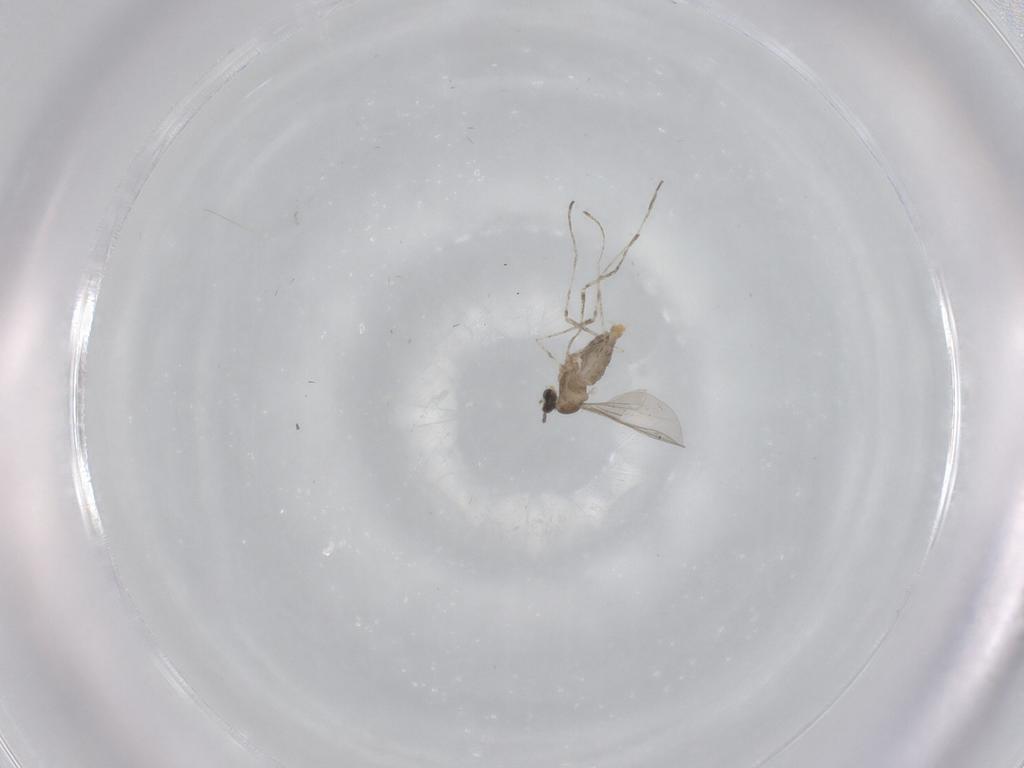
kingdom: Animalia
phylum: Arthropoda
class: Insecta
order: Diptera
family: Cecidomyiidae
